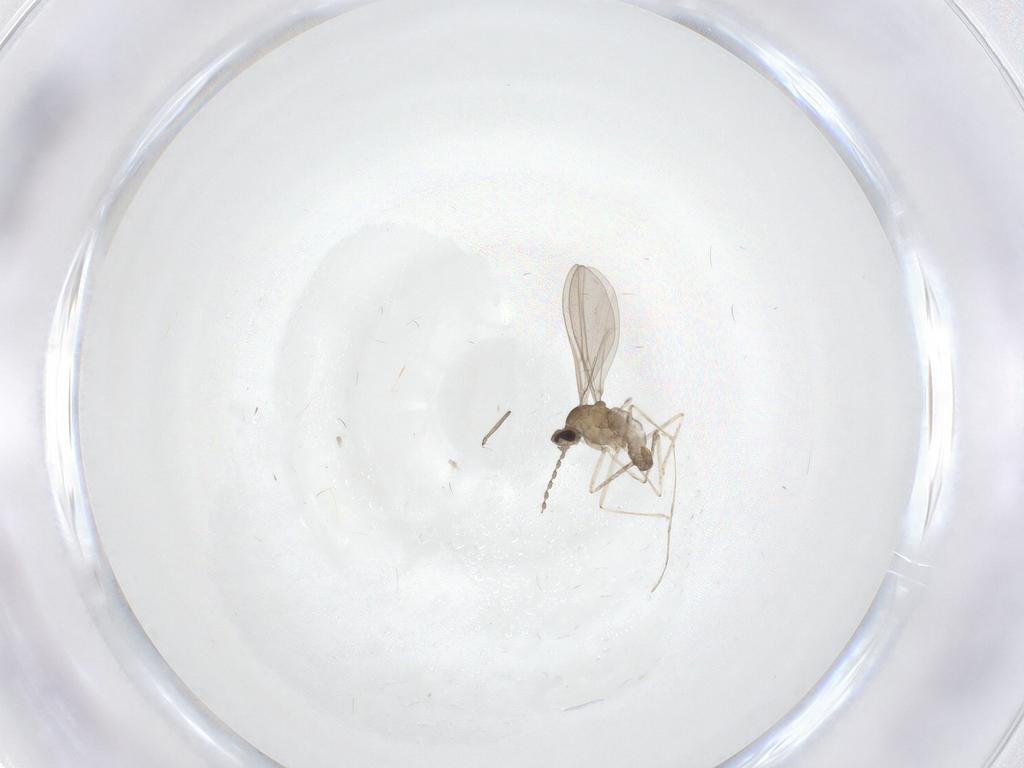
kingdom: Animalia
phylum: Arthropoda
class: Insecta
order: Diptera
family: Cecidomyiidae
